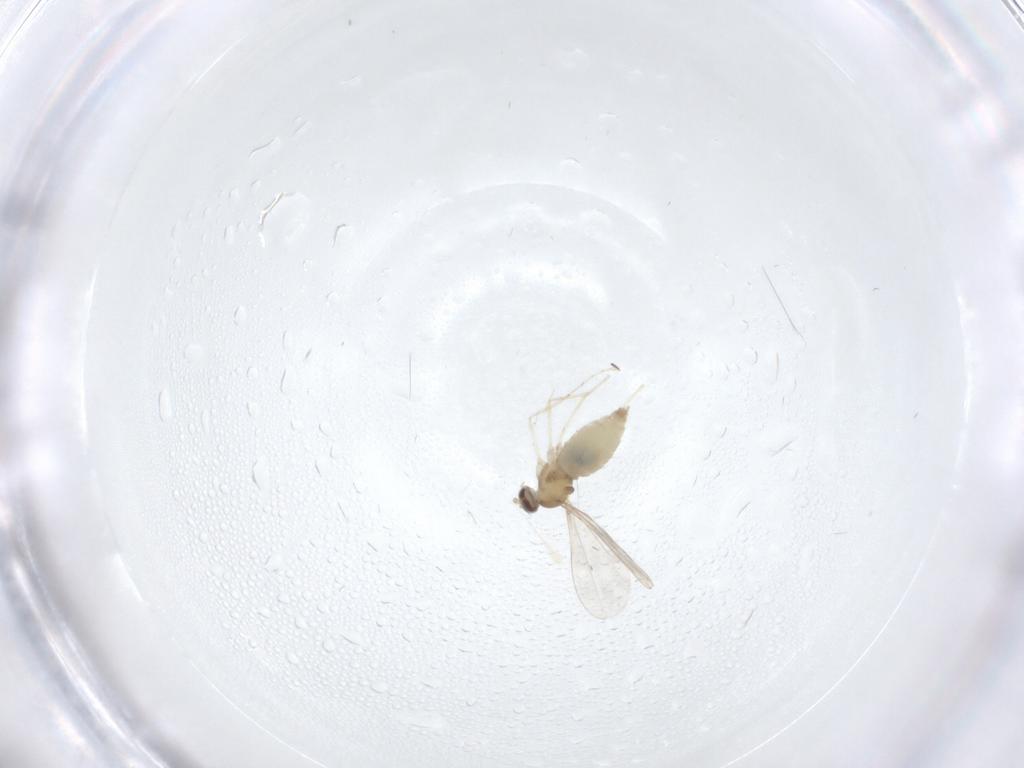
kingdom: Animalia
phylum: Arthropoda
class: Insecta
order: Diptera
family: Cecidomyiidae
